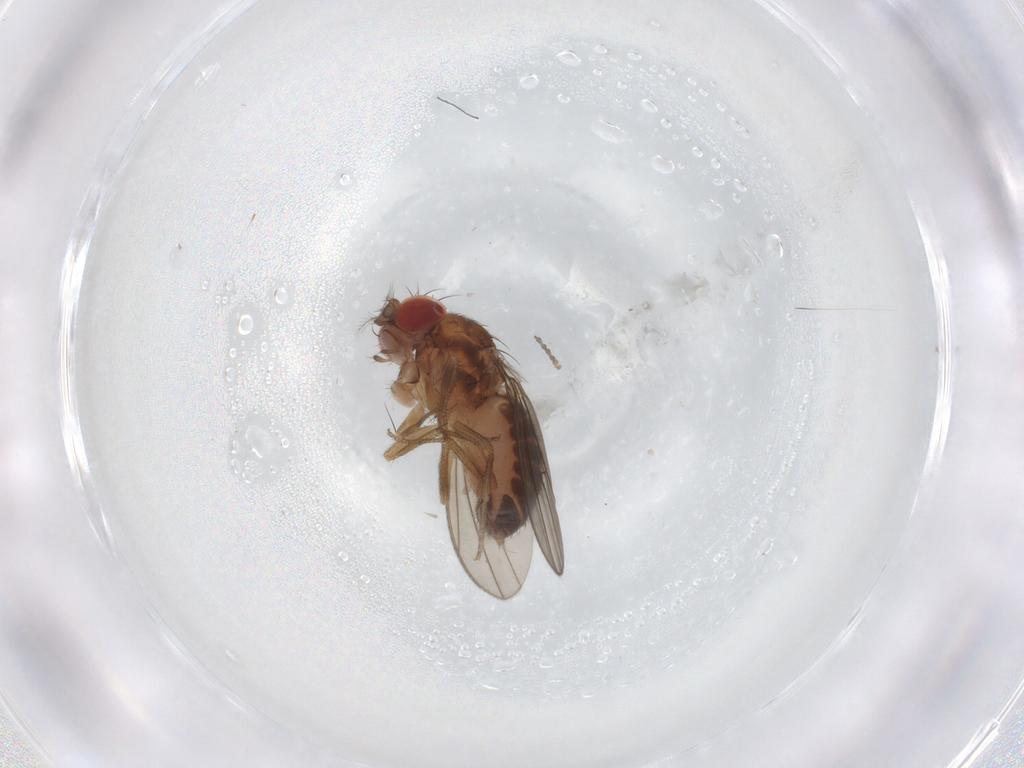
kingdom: Animalia
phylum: Arthropoda
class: Insecta
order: Diptera
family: Drosophilidae
